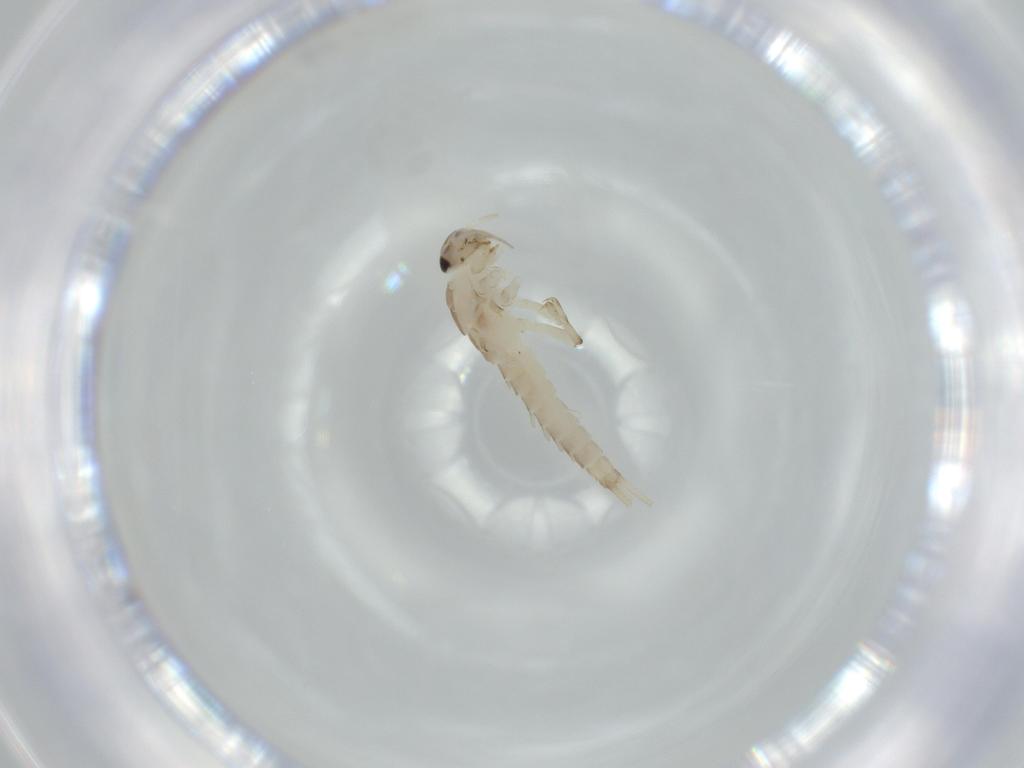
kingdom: Animalia
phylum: Arthropoda
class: Insecta
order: Ephemeroptera
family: Baetidae
